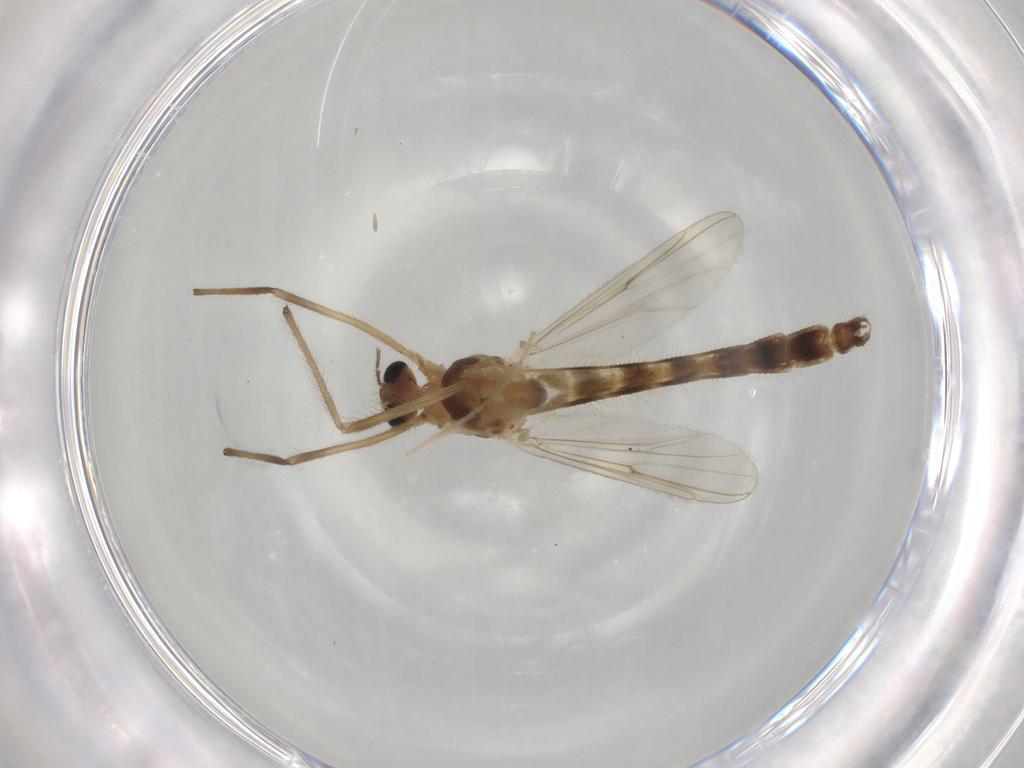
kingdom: Animalia
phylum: Arthropoda
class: Insecta
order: Diptera
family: Chironomidae
